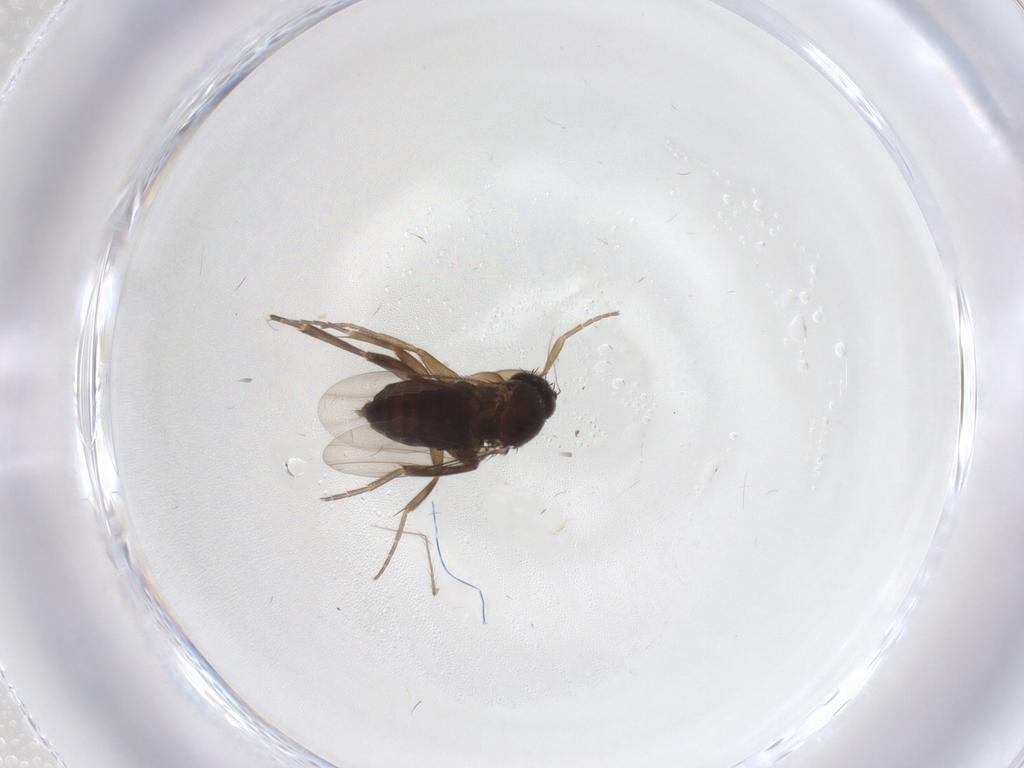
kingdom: Animalia
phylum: Arthropoda
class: Insecta
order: Diptera
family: Phoridae
